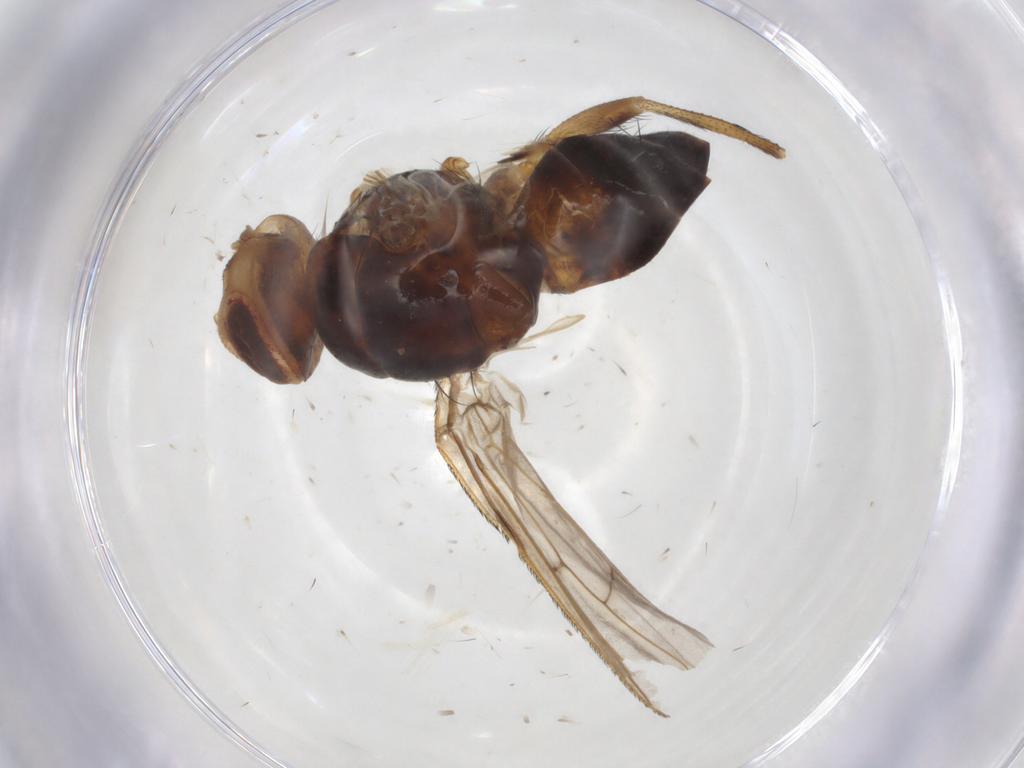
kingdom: Animalia
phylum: Arthropoda
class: Insecta
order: Diptera
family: Tachinidae
